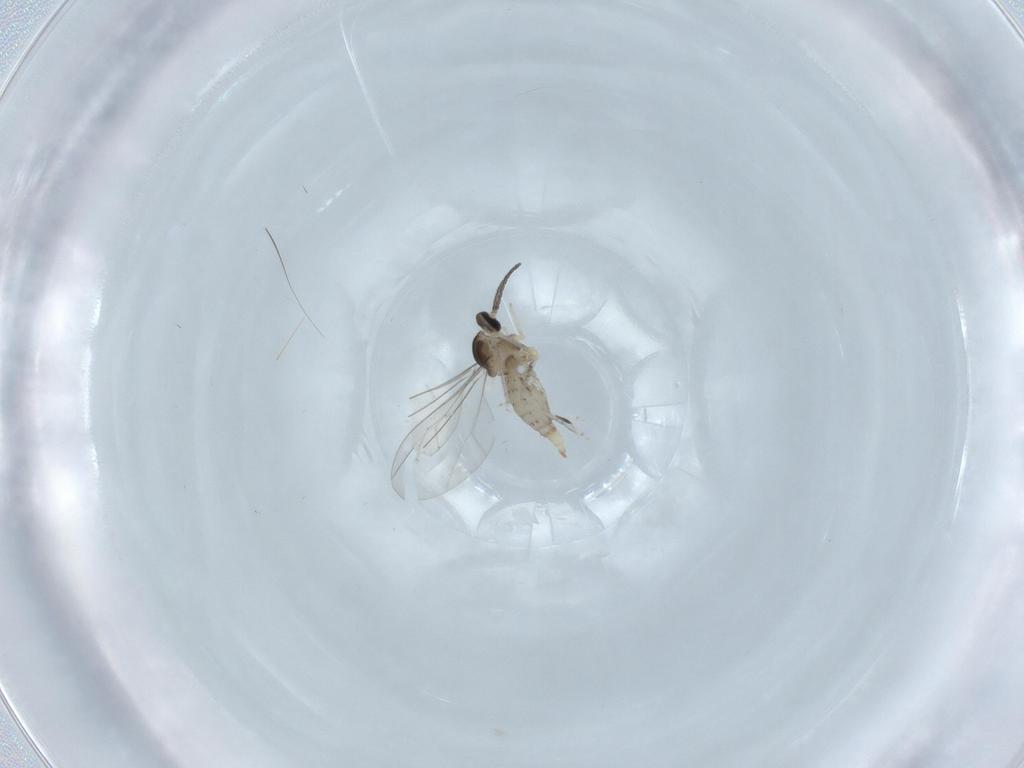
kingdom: Animalia
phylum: Arthropoda
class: Insecta
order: Diptera
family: Cecidomyiidae
